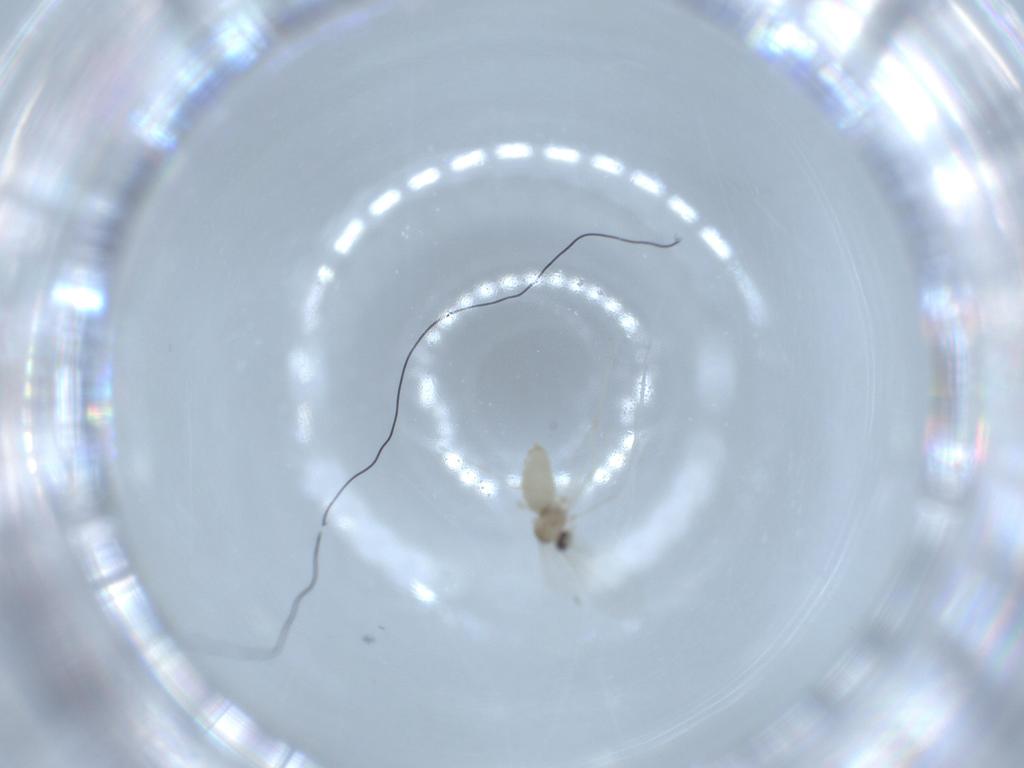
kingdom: Animalia
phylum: Arthropoda
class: Insecta
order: Diptera
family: Cecidomyiidae
